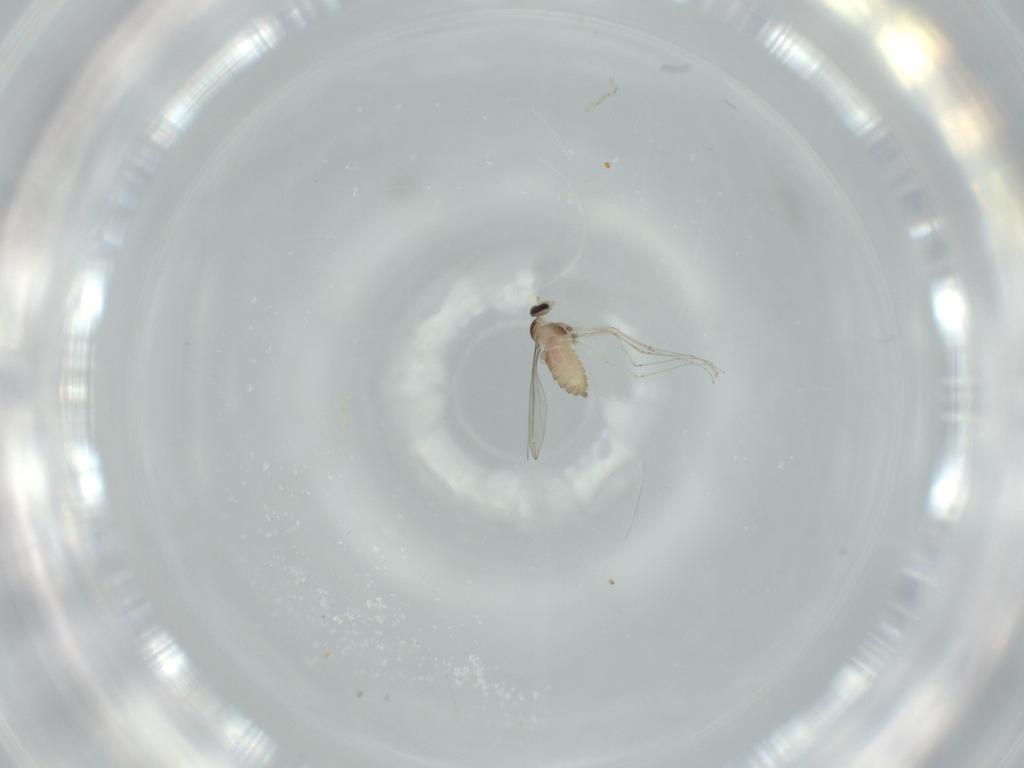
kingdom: Animalia
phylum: Arthropoda
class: Insecta
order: Diptera
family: Cecidomyiidae
